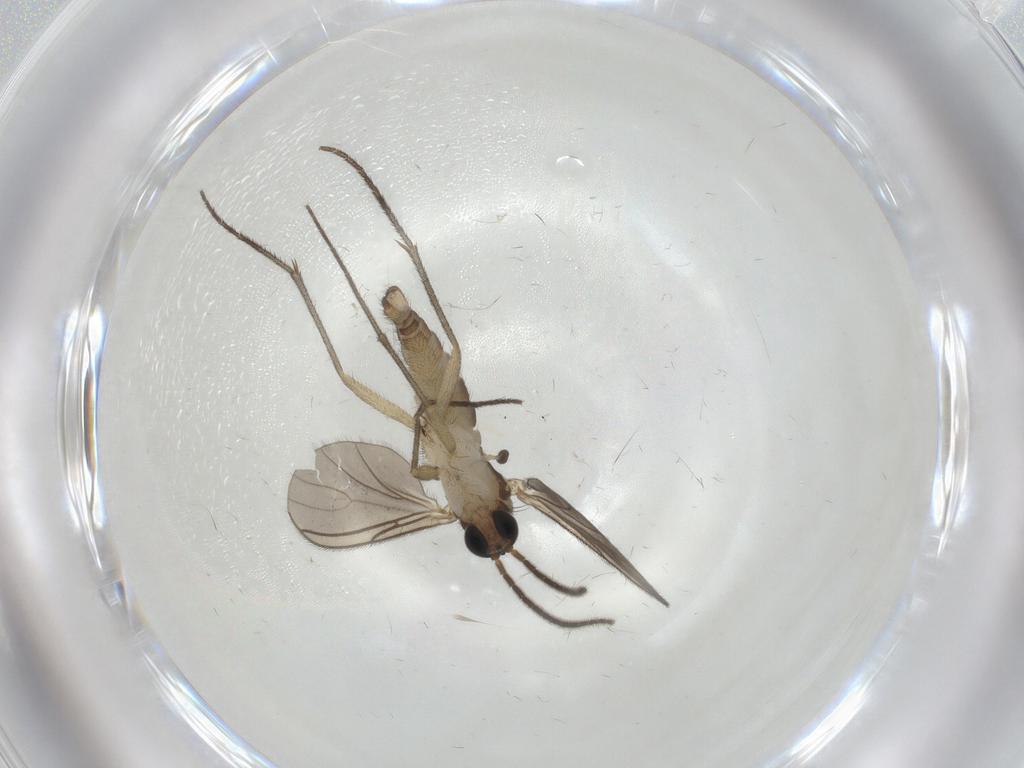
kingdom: Animalia
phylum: Arthropoda
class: Insecta
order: Diptera
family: Sciaridae
